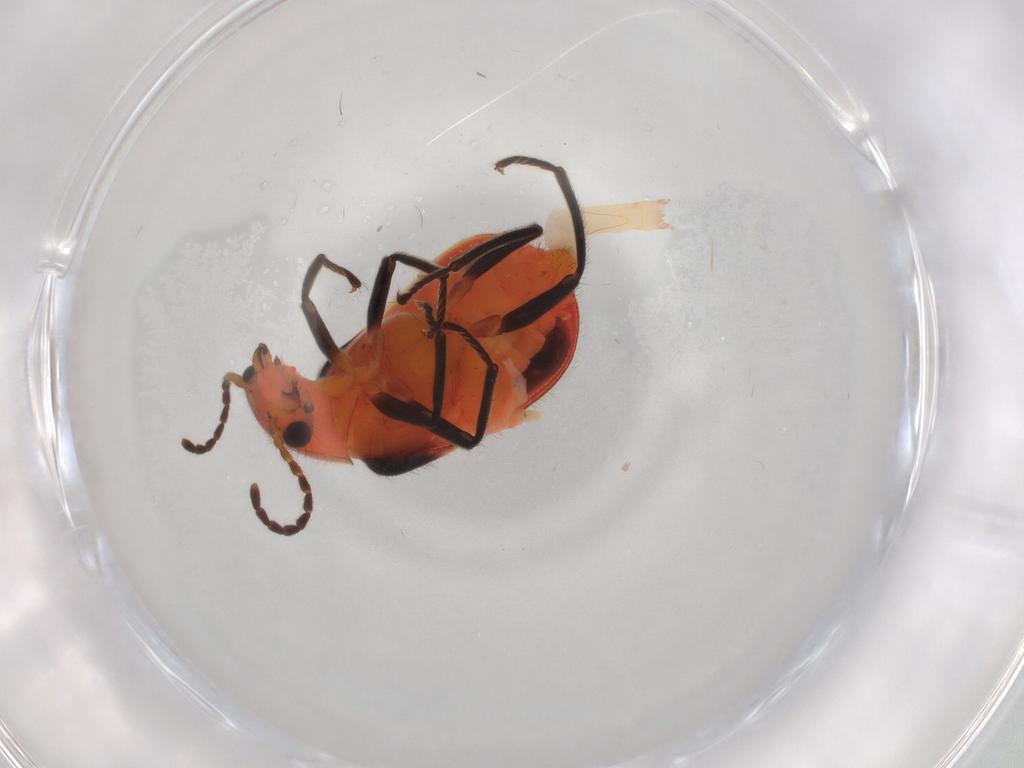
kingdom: Animalia
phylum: Arthropoda
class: Insecta
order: Coleoptera
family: Melyridae
